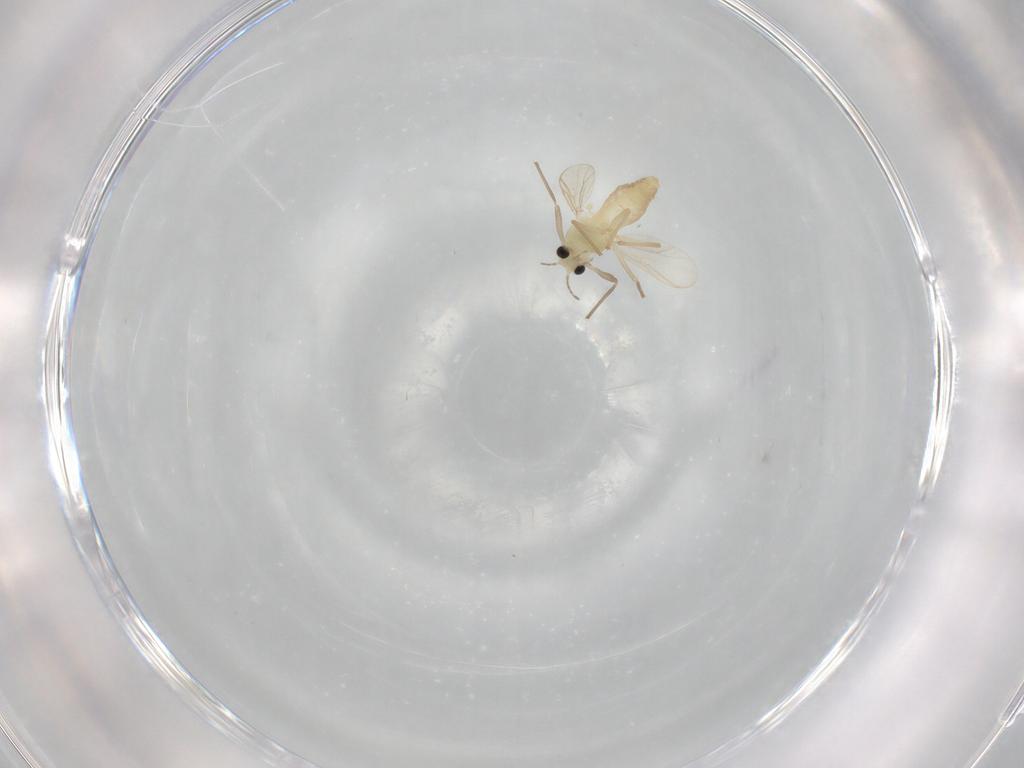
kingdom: Animalia
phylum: Arthropoda
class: Insecta
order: Diptera
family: Chironomidae
